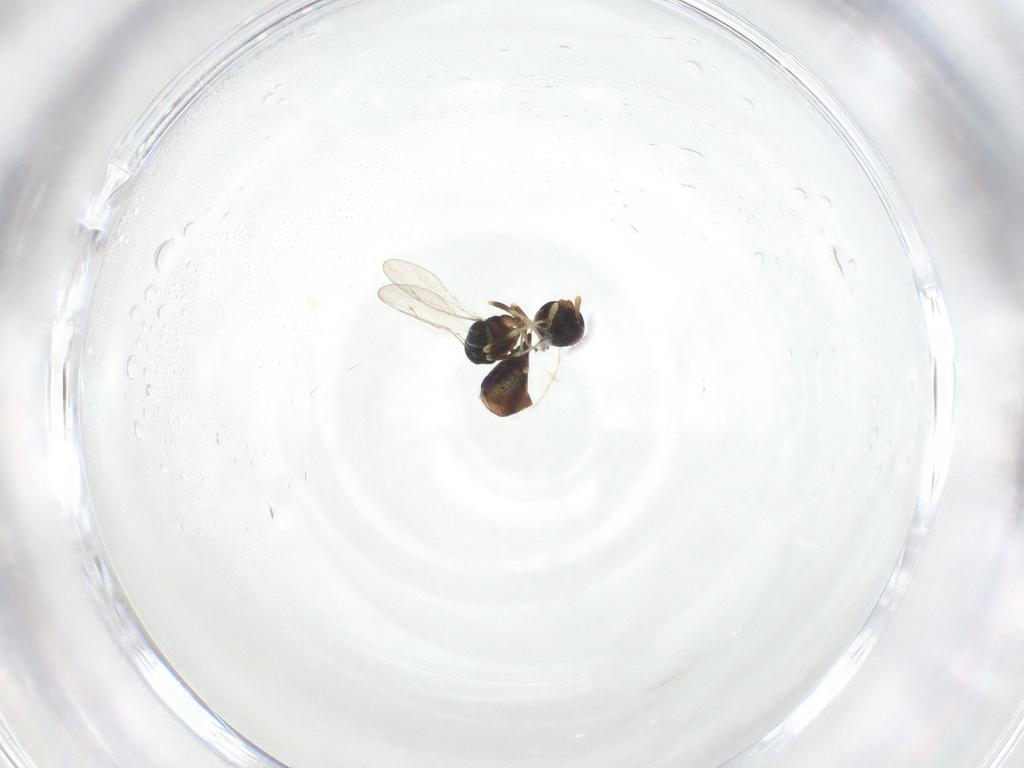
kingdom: Animalia
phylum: Arthropoda
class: Insecta
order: Hymenoptera
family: Pteromalidae
